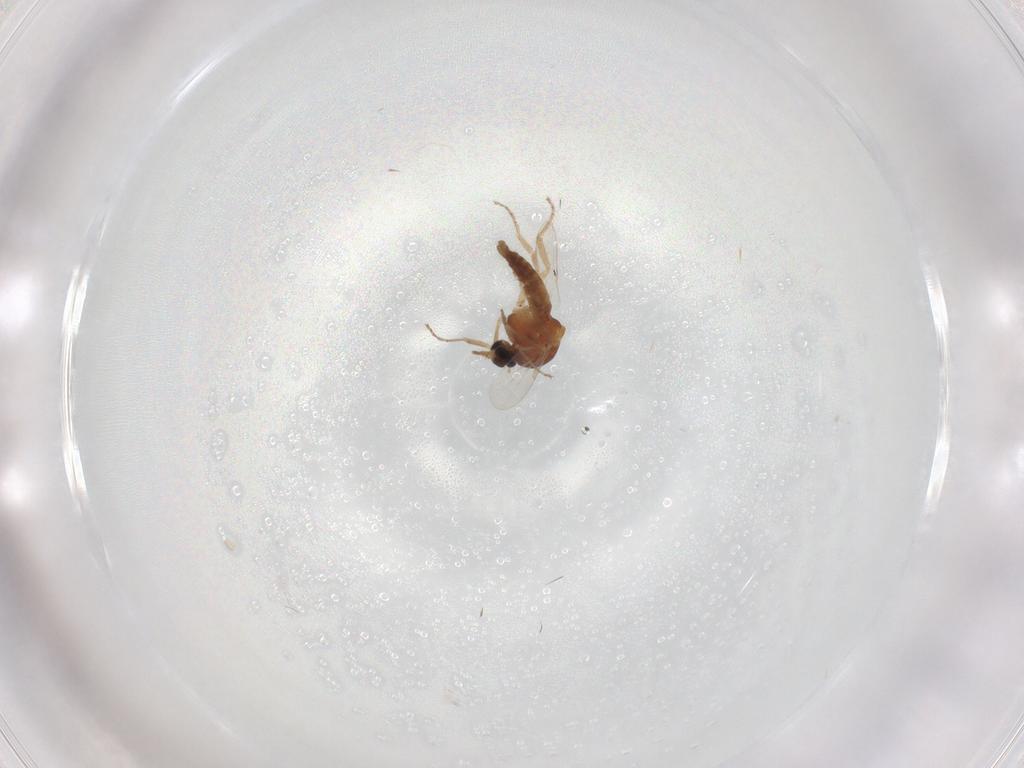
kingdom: Animalia
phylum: Arthropoda
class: Insecta
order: Diptera
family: Ceratopogonidae
